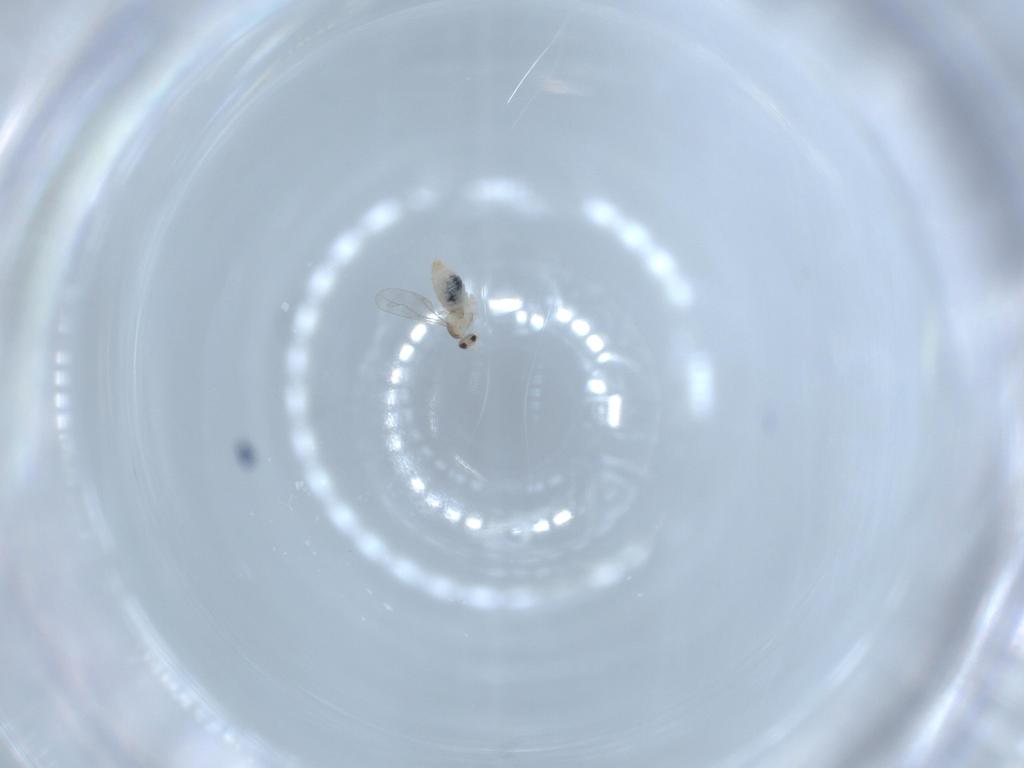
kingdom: Animalia
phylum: Arthropoda
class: Insecta
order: Diptera
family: Cecidomyiidae
